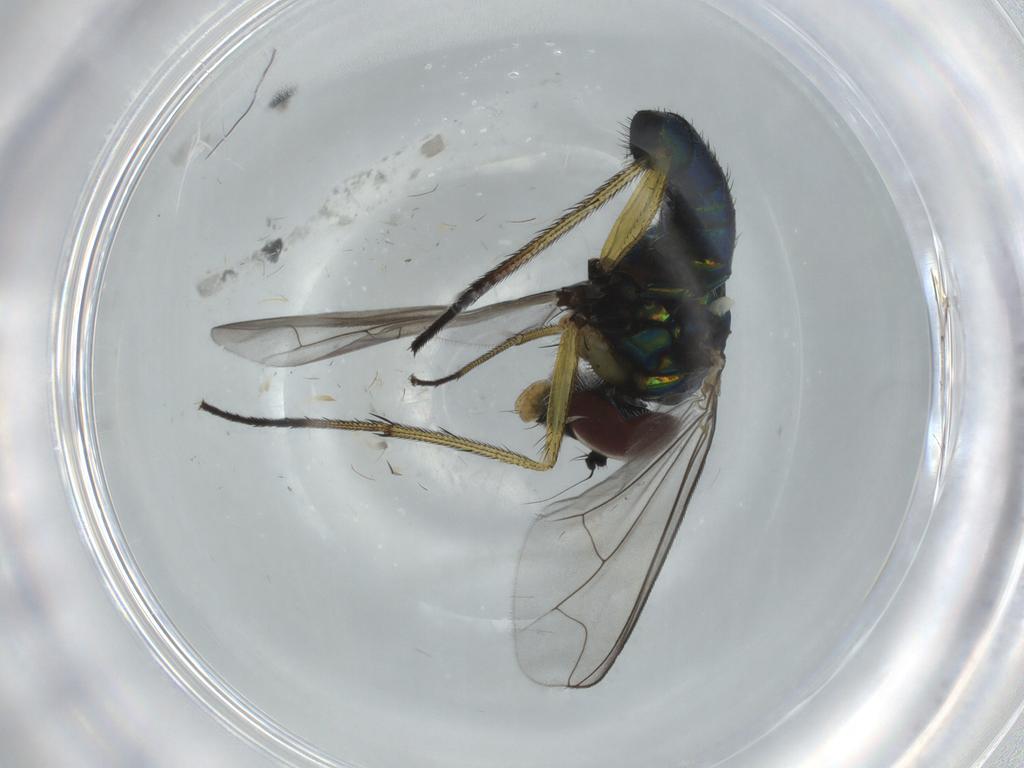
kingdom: Animalia
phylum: Arthropoda
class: Insecta
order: Diptera
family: Dolichopodidae
